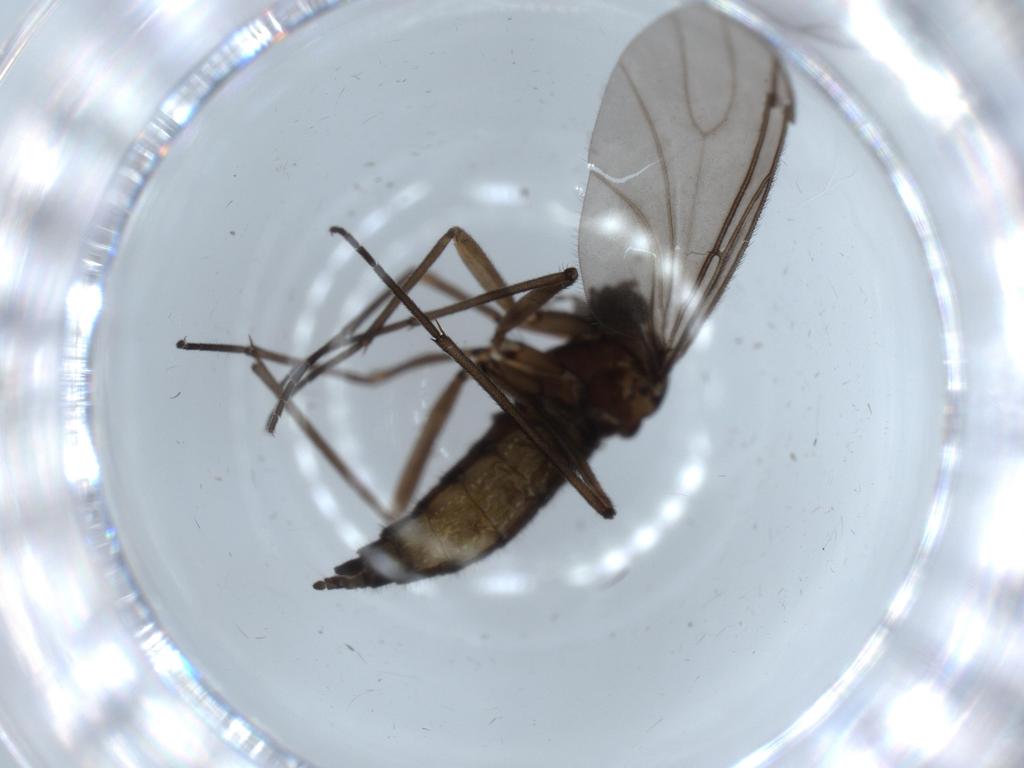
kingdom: Animalia
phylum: Arthropoda
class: Insecta
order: Diptera
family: Sciaridae
